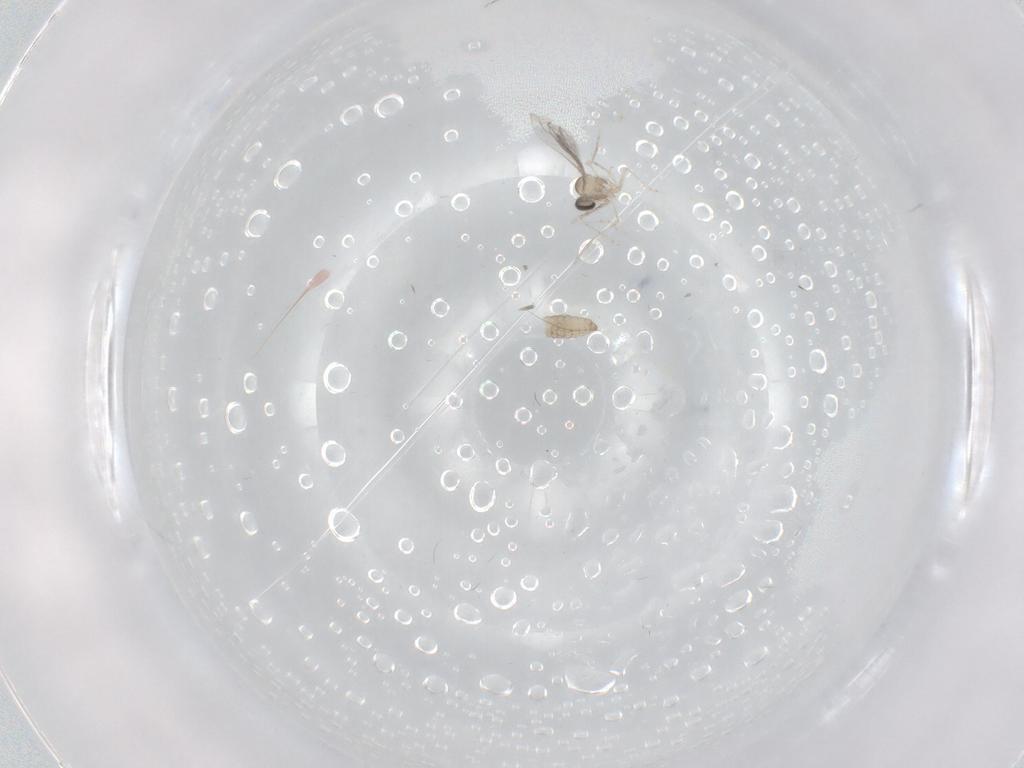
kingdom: Animalia
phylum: Arthropoda
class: Insecta
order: Diptera
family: Cecidomyiidae
